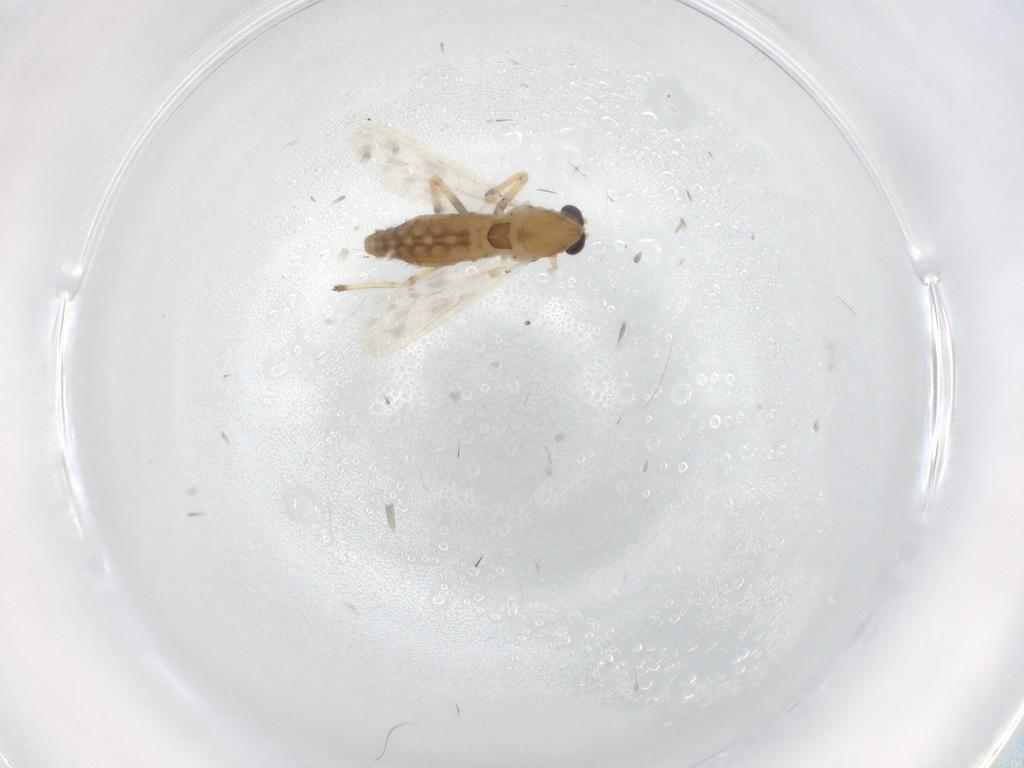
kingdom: Animalia
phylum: Arthropoda
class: Insecta
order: Diptera
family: Chironomidae
